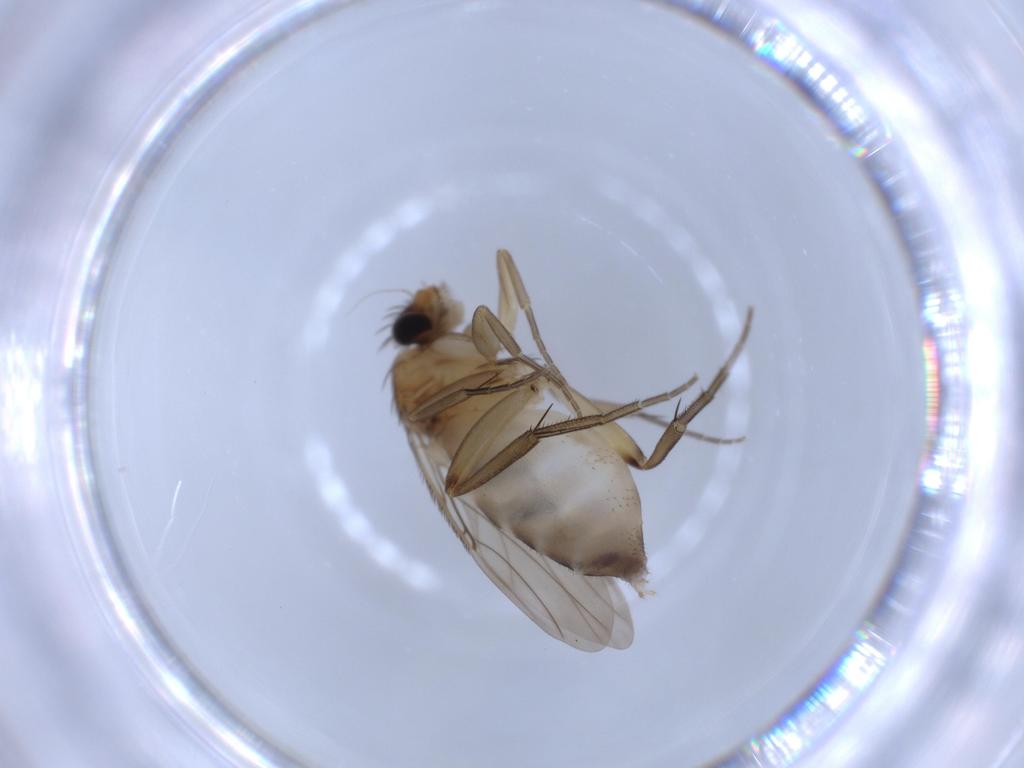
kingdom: Animalia
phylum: Arthropoda
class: Insecta
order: Diptera
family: Phoridae
